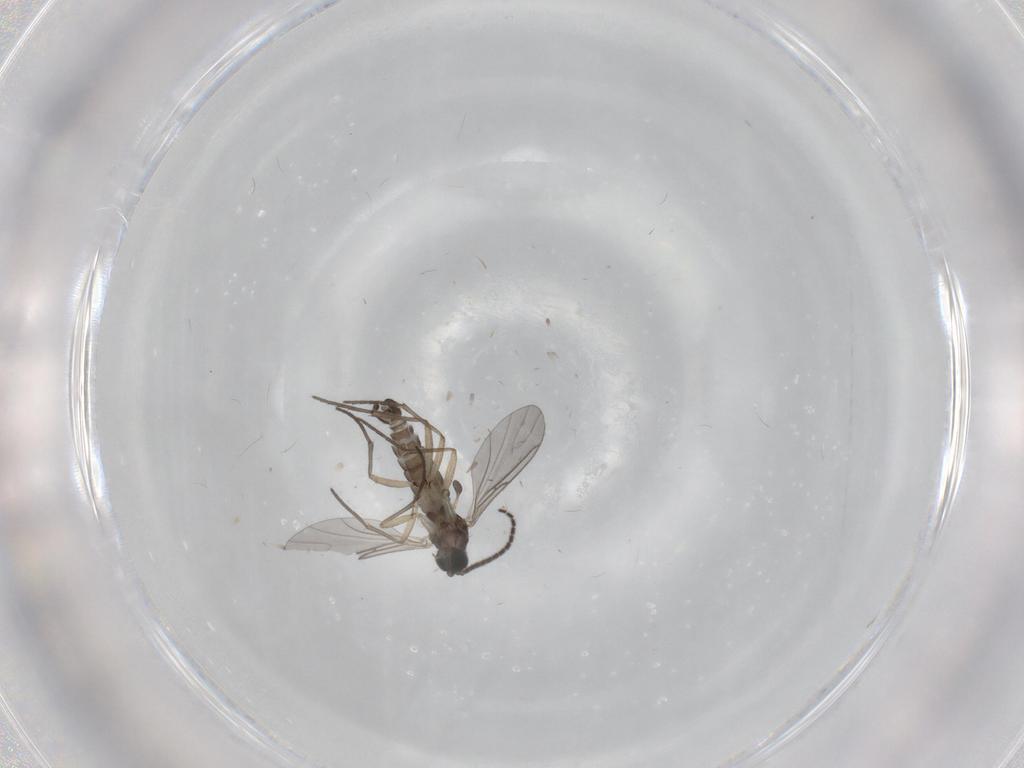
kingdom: Animalia
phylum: Arthropoda
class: Insecta
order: Diptera
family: Sciaridae
